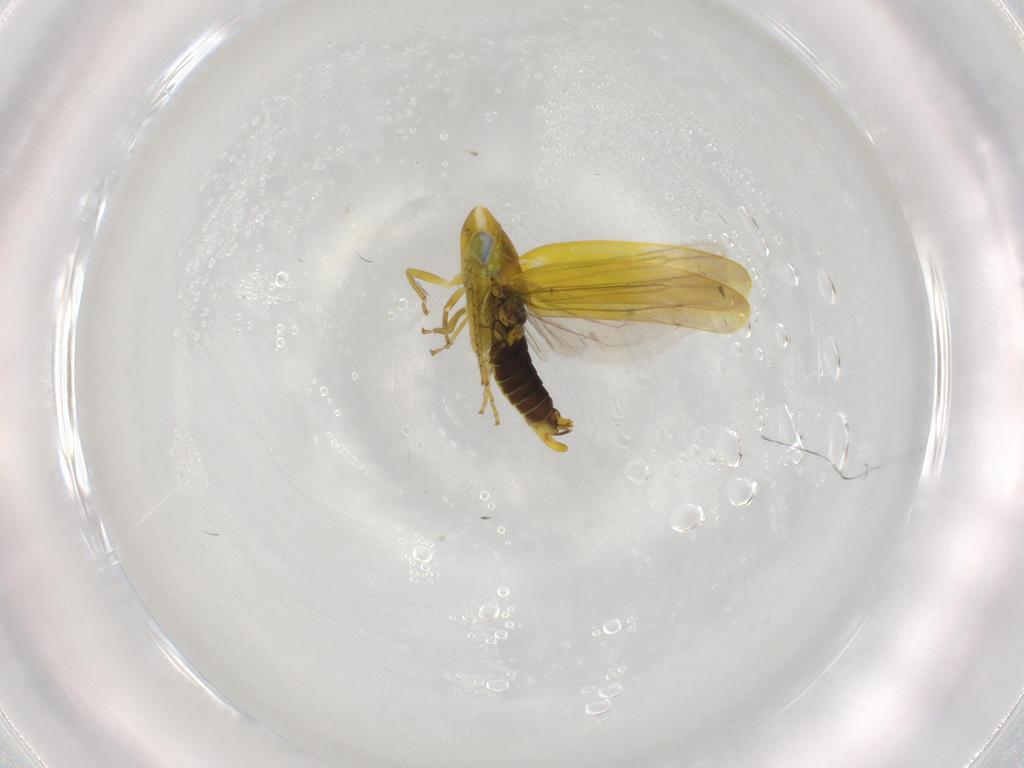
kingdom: Animalia
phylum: Arthropoda
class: Insecta
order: Hemiptera
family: Cicadellidae
